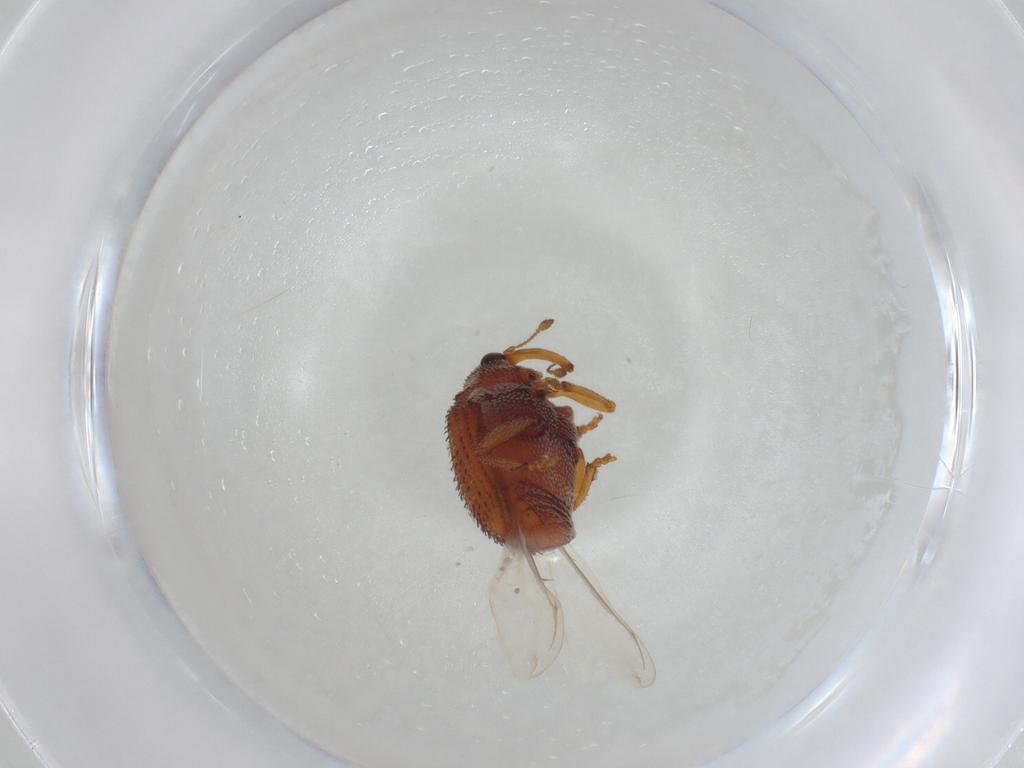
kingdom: Animalia
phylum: Arthropoda
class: Insecta
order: Coleoptera
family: Curculionidae
